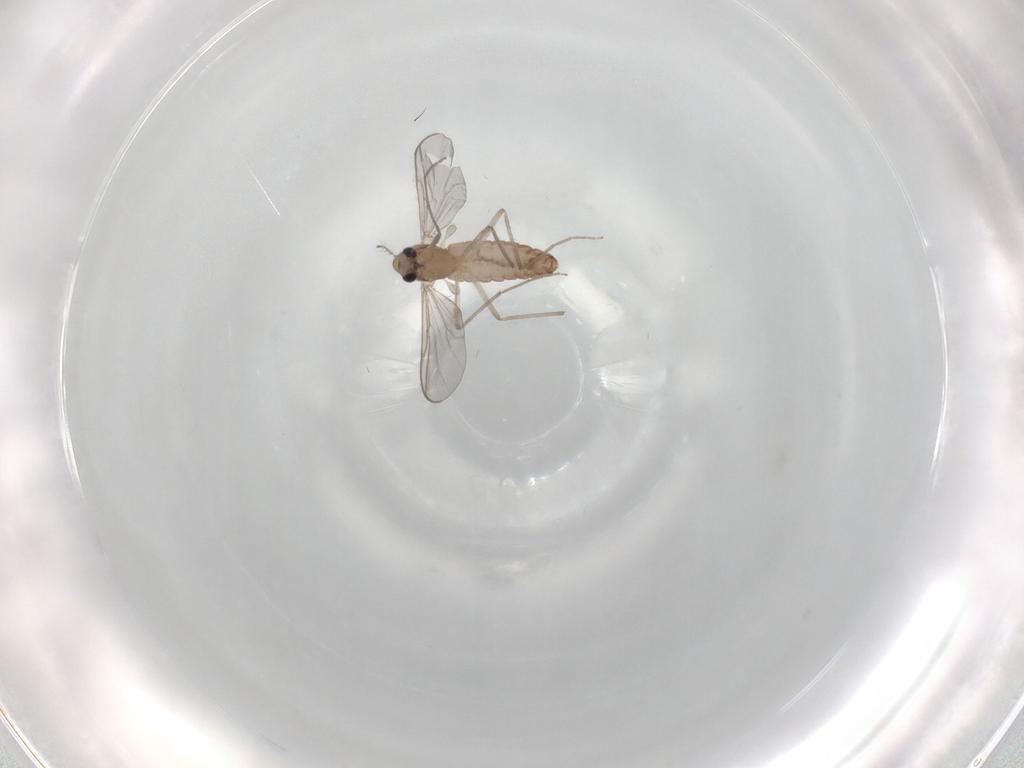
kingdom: Animalia
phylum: Arthropoda
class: Insecta
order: Diptera
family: Chironomidae
